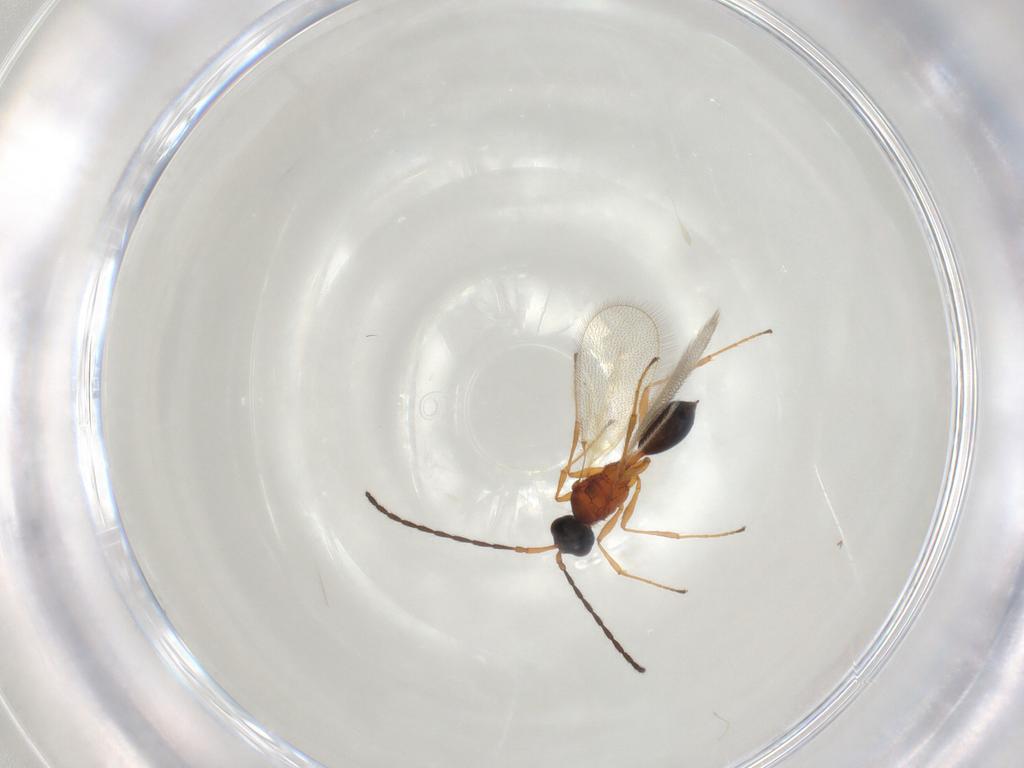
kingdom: Animalia
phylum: Arthropoda
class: Insecta
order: Hymenoptera
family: Diapriidae
